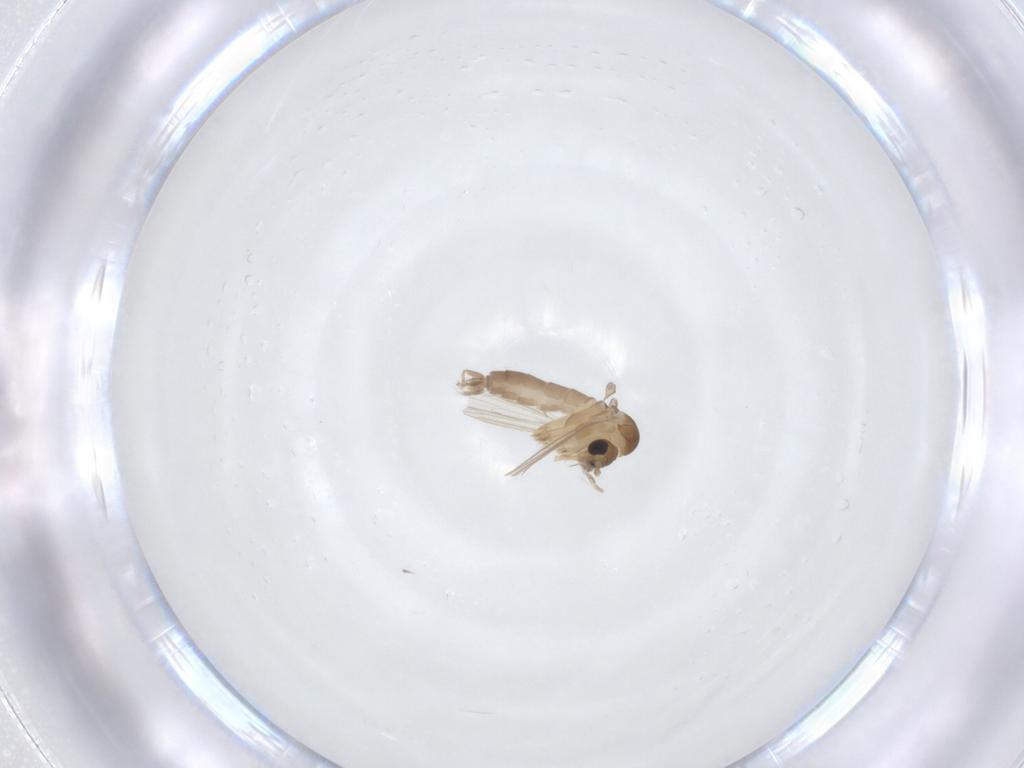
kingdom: Animalia
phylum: Arthropoda
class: Insecta
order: Diptera
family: Psychodidae
